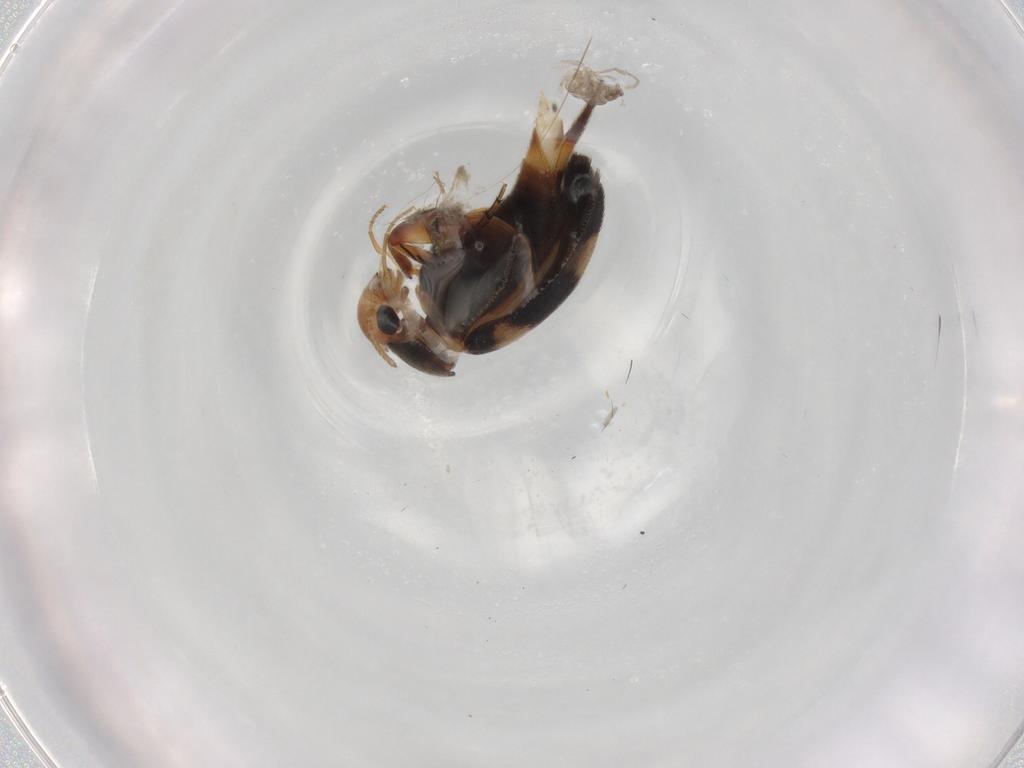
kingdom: Animalia
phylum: Arthropoda
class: Insecta
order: Coleoptera
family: Mordellidae
